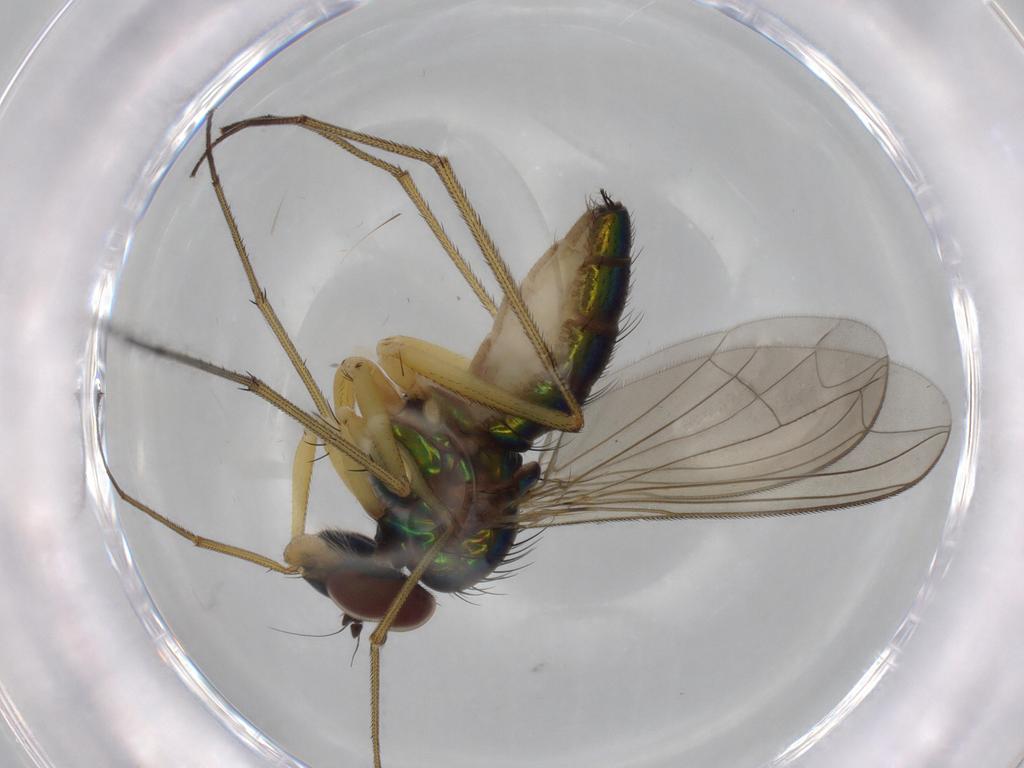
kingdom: Animalia
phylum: Arthropoda
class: Insecta
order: Diptera
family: Dolichopodidae
